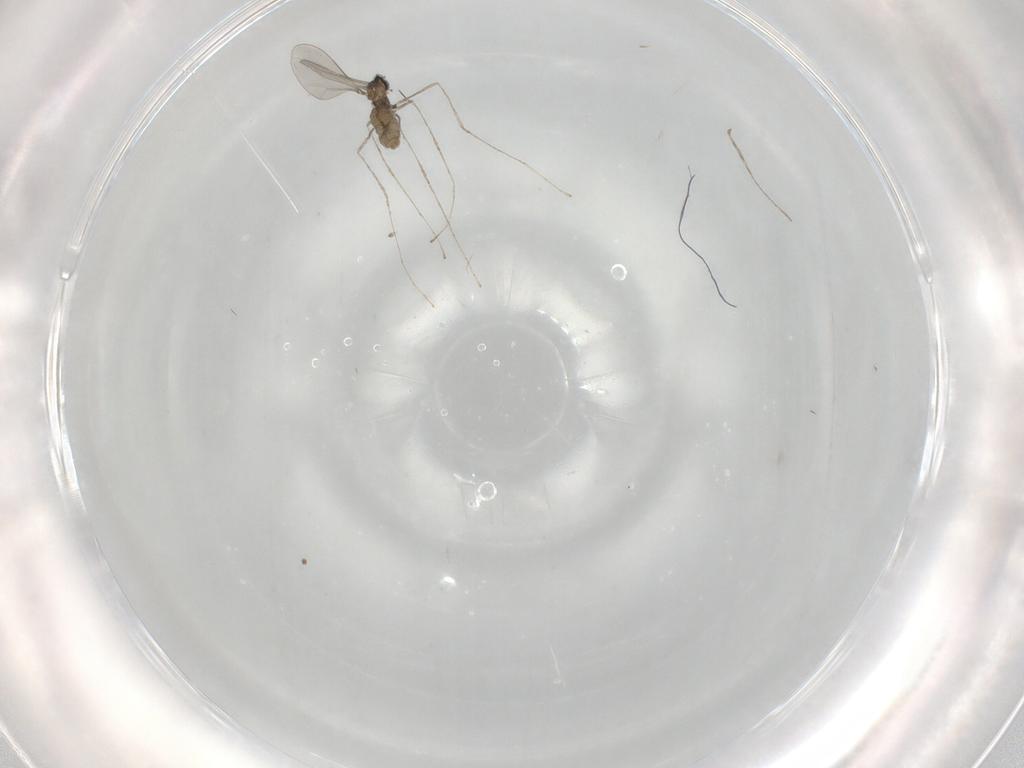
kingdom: Animalia
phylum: Arthropoda
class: Insecta
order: Diptera
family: Cecidomyiidae
